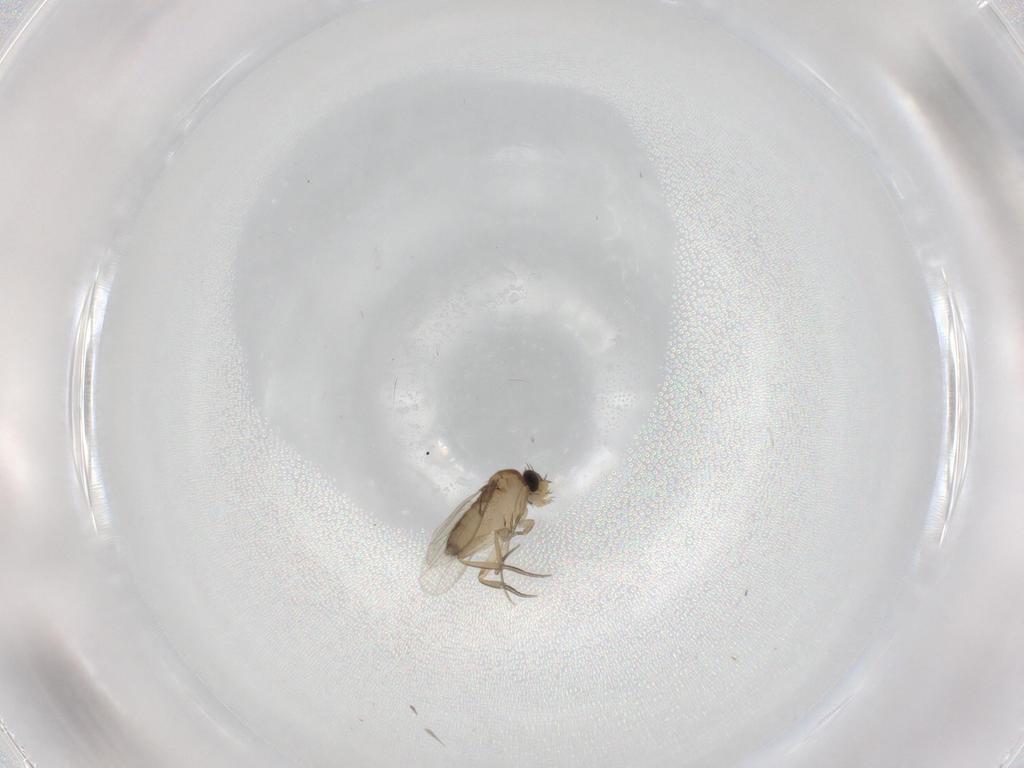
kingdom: Animalia
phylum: Arthropoda
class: Insecta
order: Diptera
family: Phoridae
